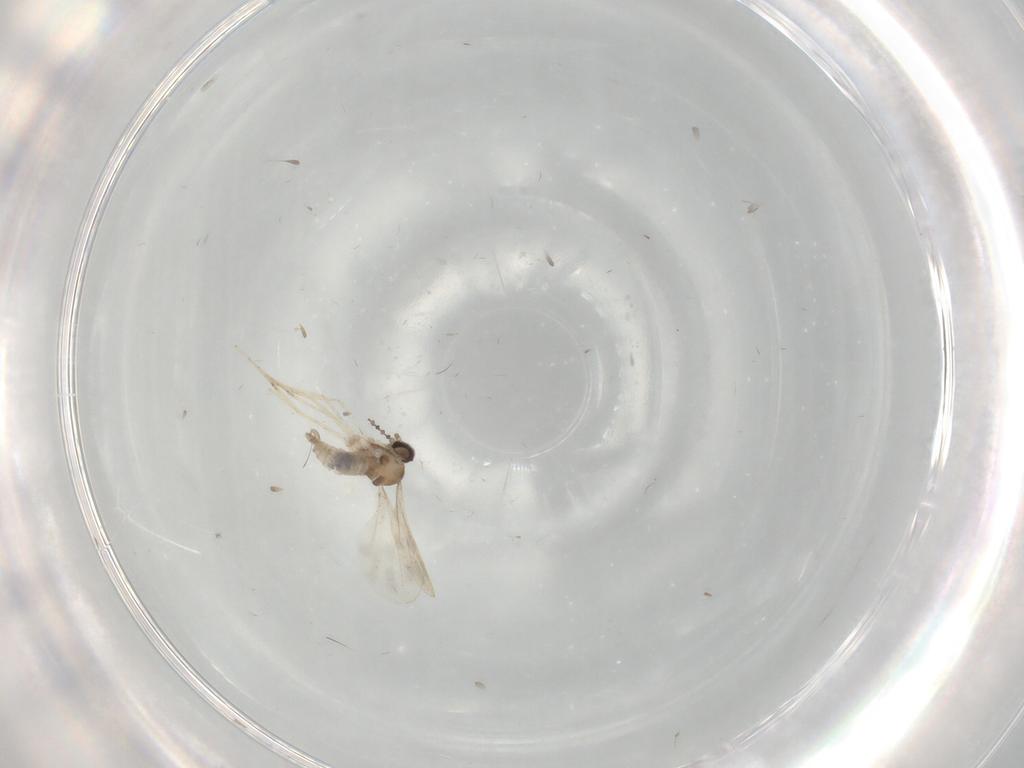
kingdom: Animalia
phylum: Arthropoda
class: Insecta
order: Diptera
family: Cecidomyiidae
